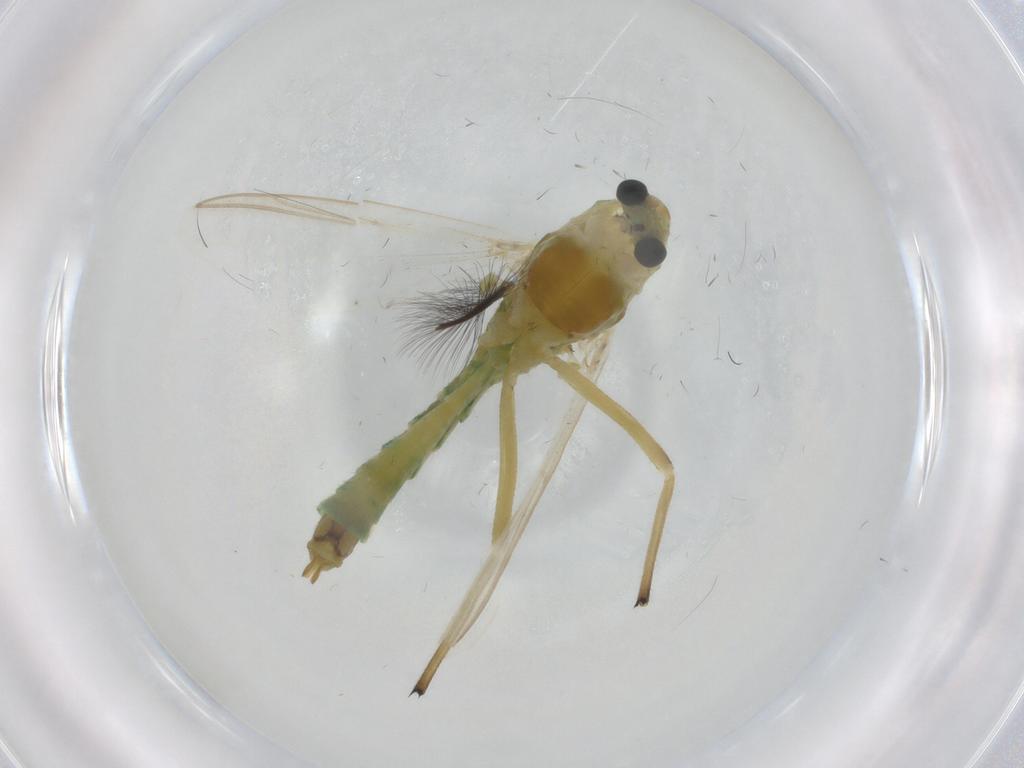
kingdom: Animalia
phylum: Arthropoda
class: Insecta
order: Diptera
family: Chironomidae
